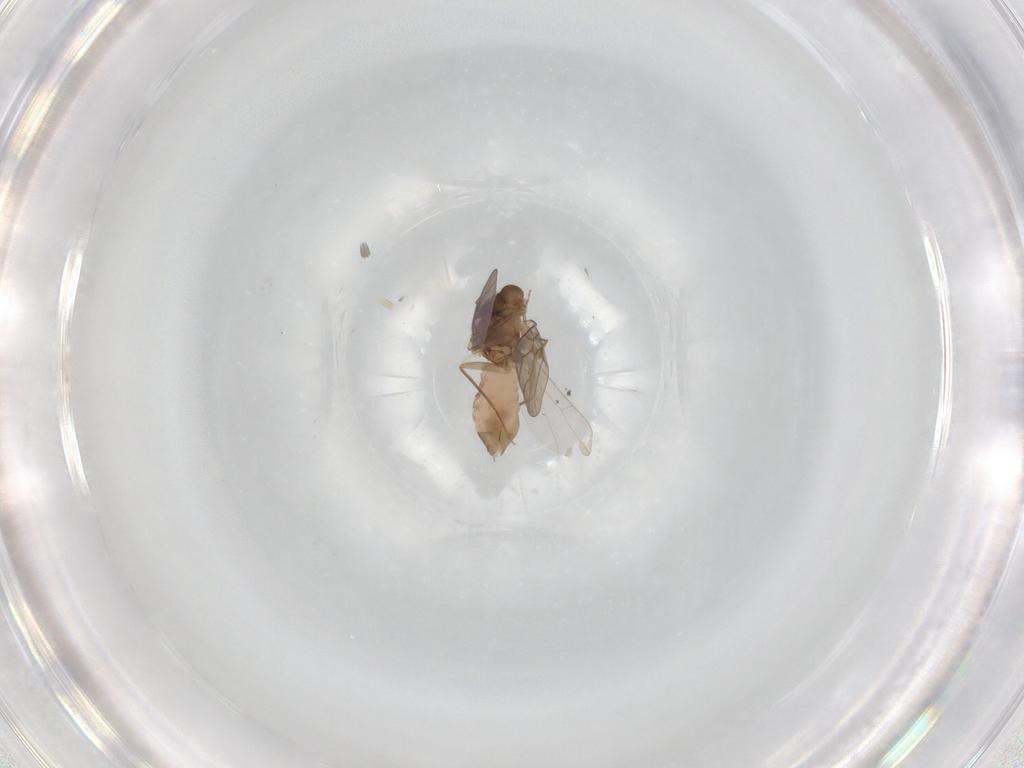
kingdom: Animalia
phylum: Arthropoda
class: Insecta
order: Psocodea
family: Lepidopsocidae
